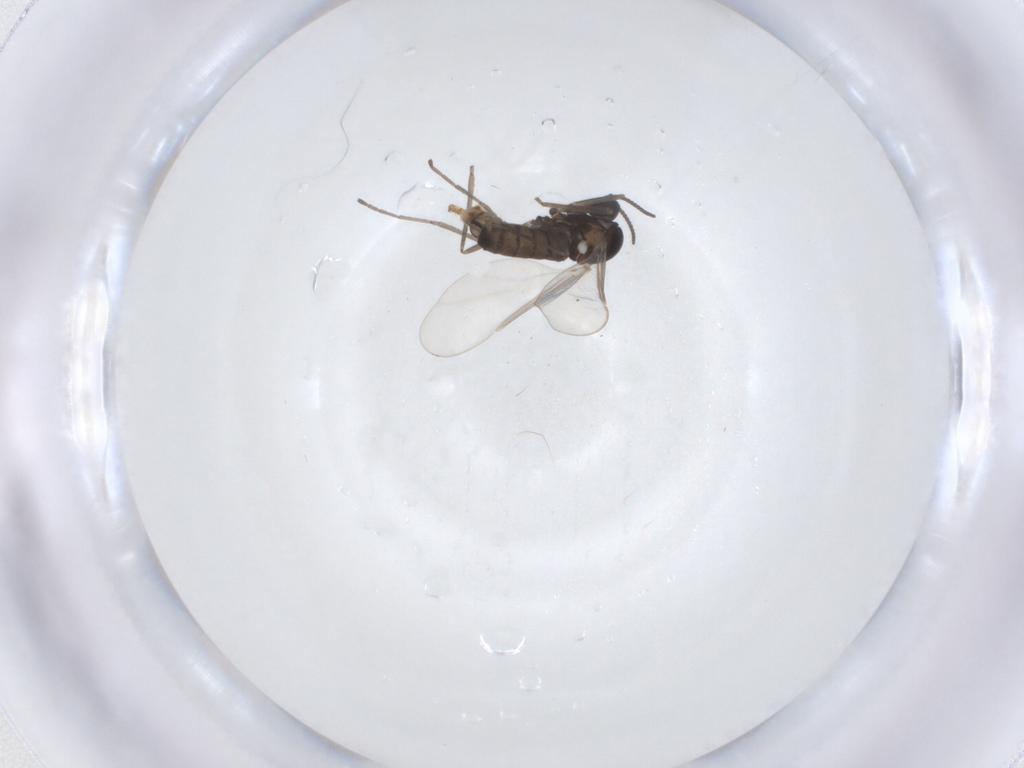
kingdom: Animalia
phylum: Arthropoda
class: Insecta
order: Diptera
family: Cecidomyiidae
